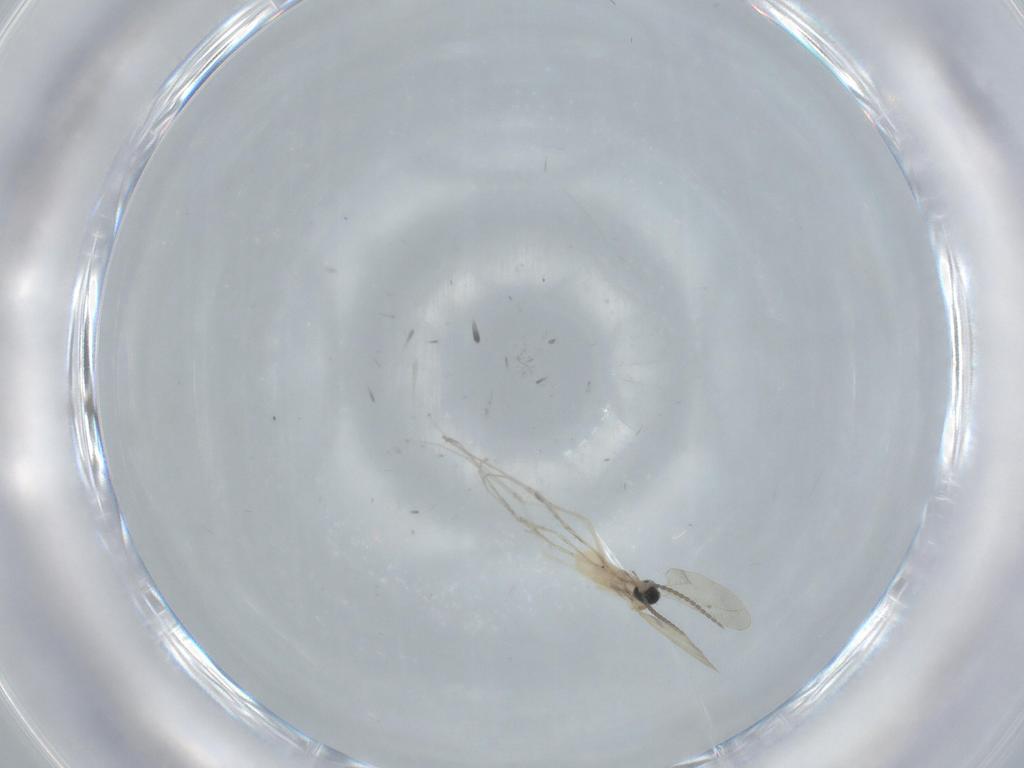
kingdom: Animalia
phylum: Arthropoda
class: Insecta
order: Diptera
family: Cecidomyiidae
